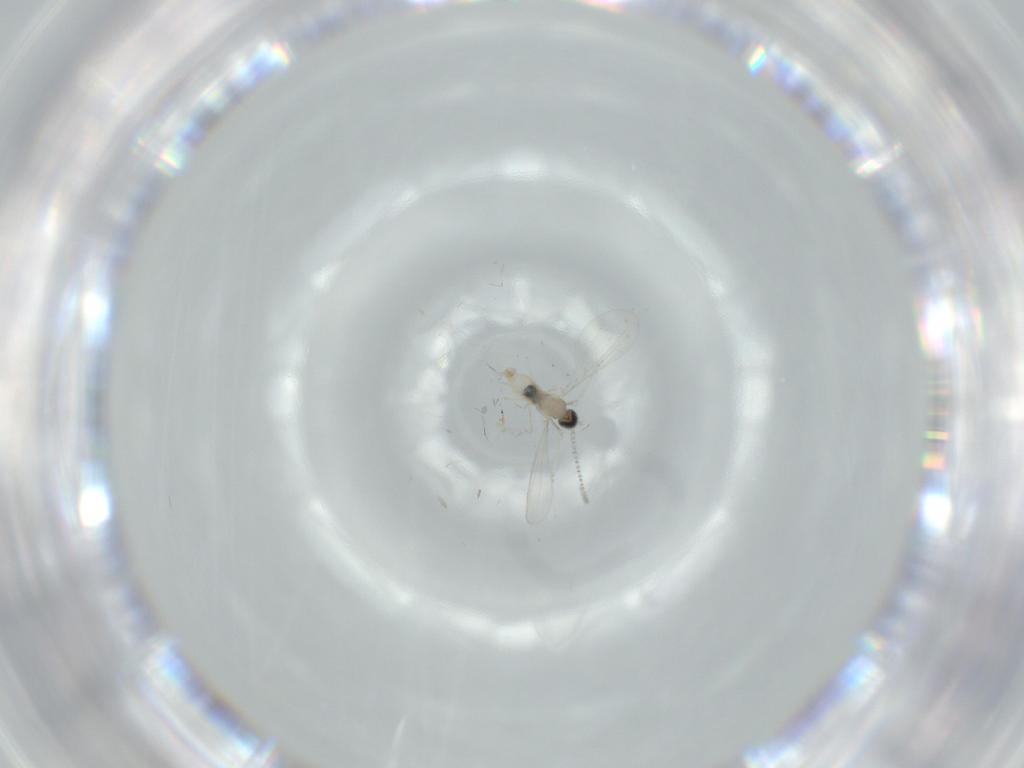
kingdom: Animalia
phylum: Arthropoda
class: Insecta
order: Diptera
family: Cecidomyiidae
